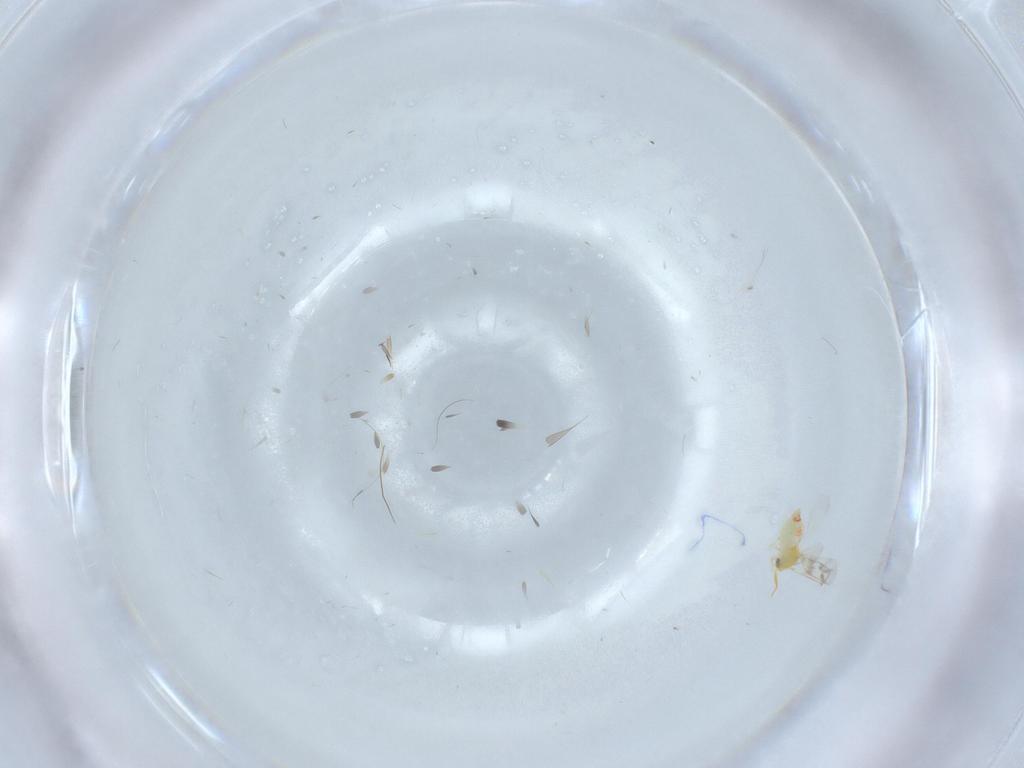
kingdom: Animalia
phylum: Arthropoda
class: Insecta
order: Hemiptera
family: Aleyrodidae
